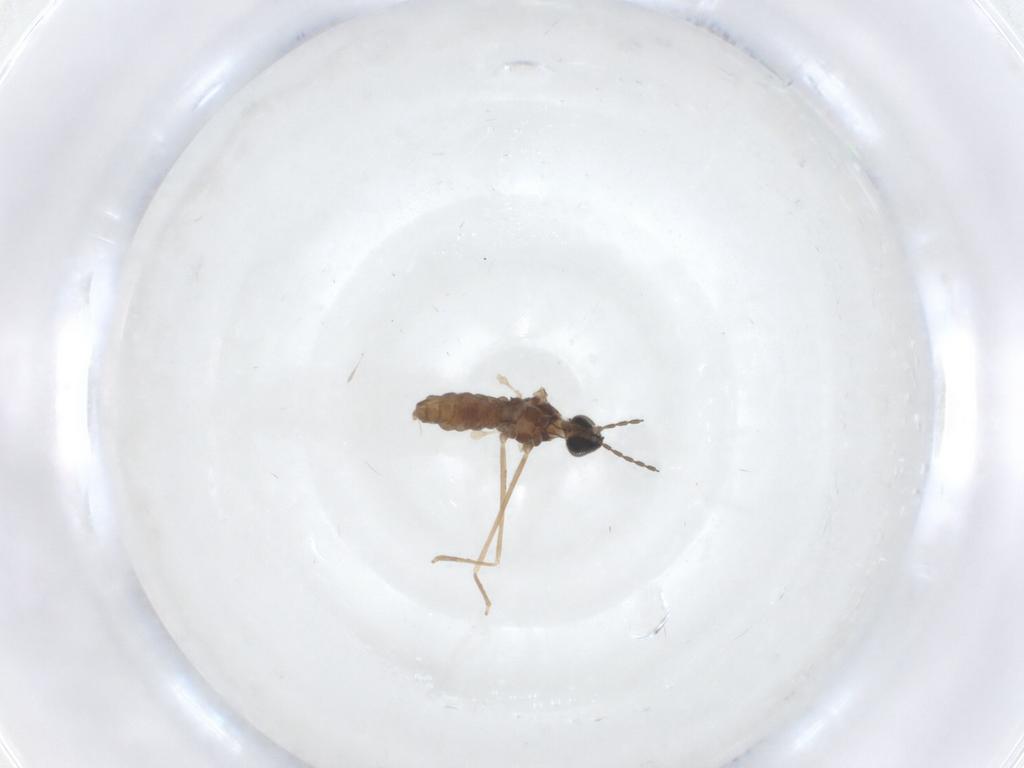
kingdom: Animalia
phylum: Arthropoda
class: Insecta
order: Diptera
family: Cecidomyiidae
